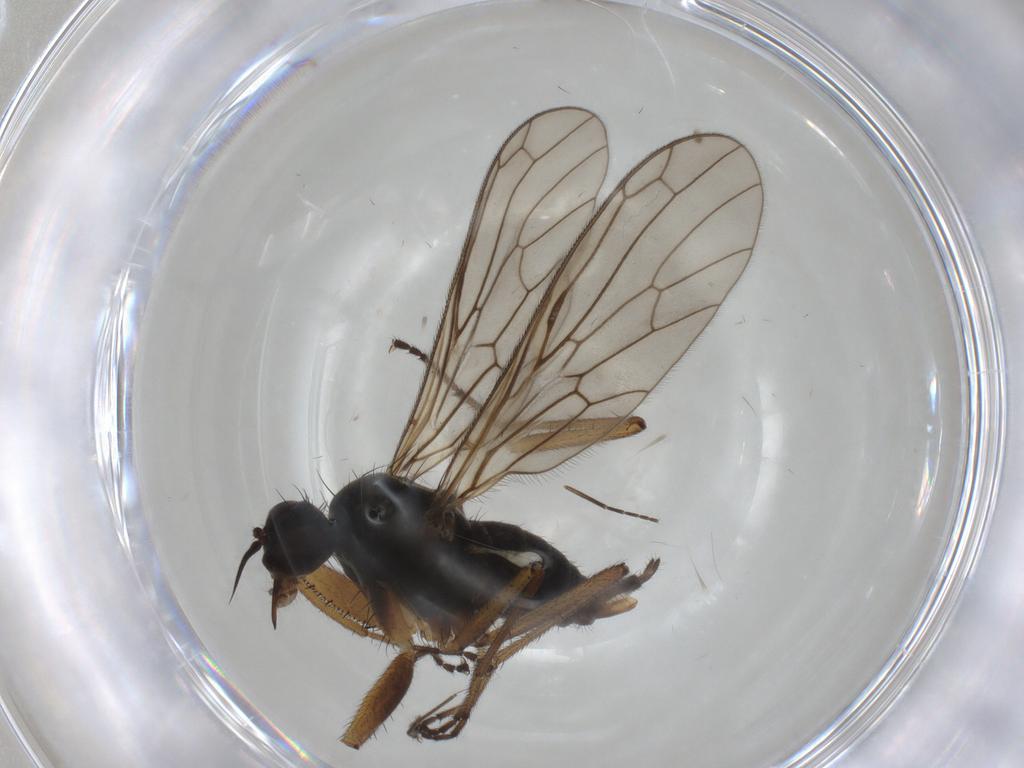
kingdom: Animalia
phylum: Arthropoda
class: Insecta
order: Diptera
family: Empididae
